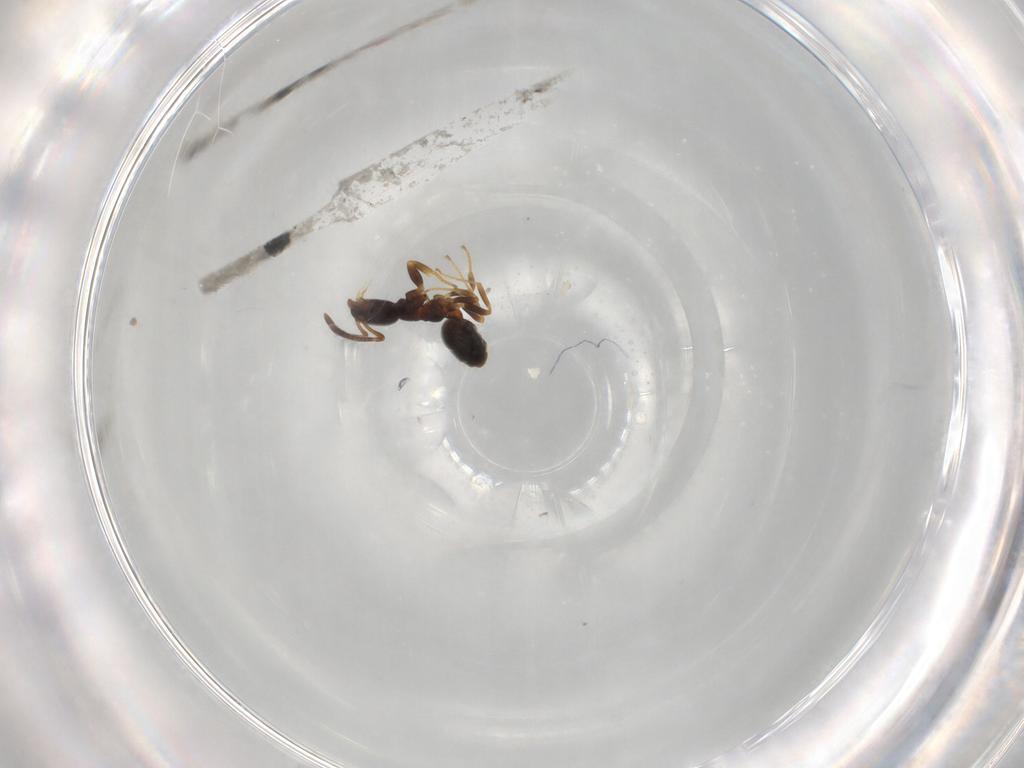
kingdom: Animalia
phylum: Arthropoda
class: Insecta
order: Hymenoptera
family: Formicidae
